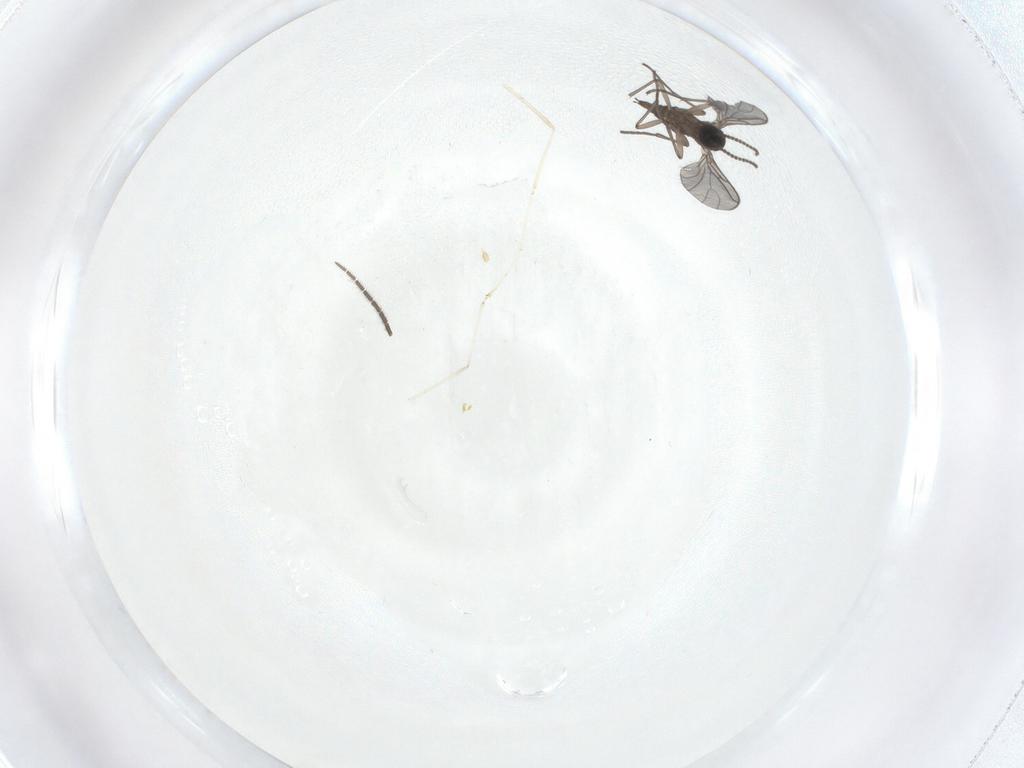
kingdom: Animalia
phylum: Arthropoda
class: Insecta
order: Diptera
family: Sciaridae
